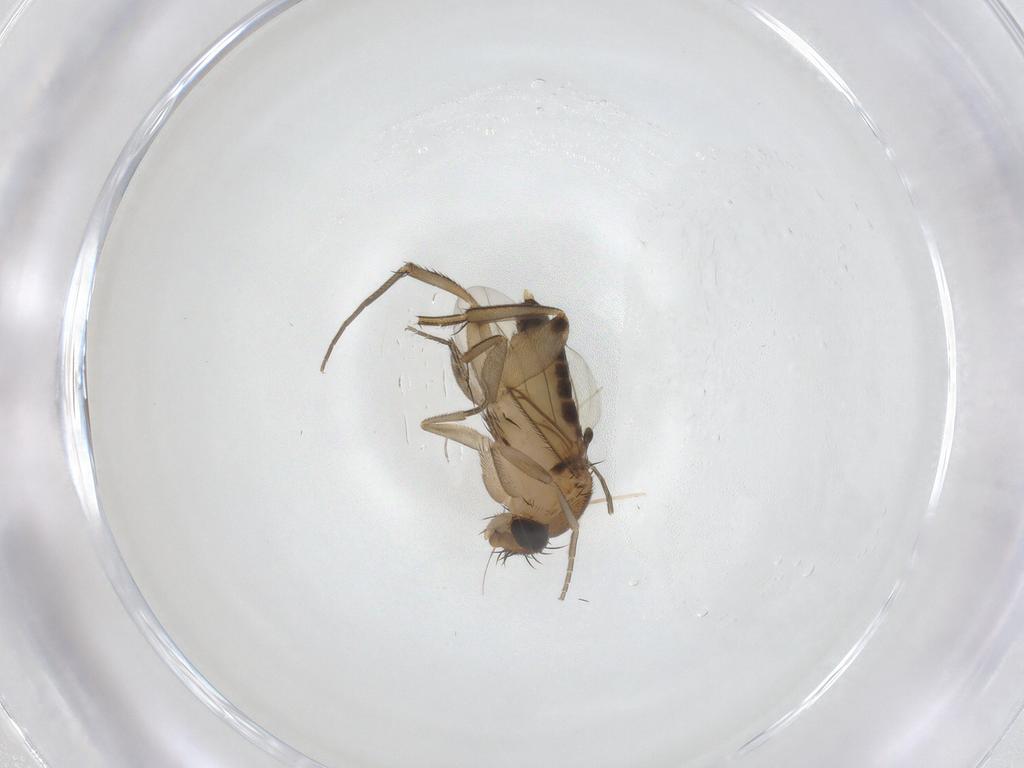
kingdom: Animalia
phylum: Arthropoda
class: Insecta
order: Diptera
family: Phoridae
